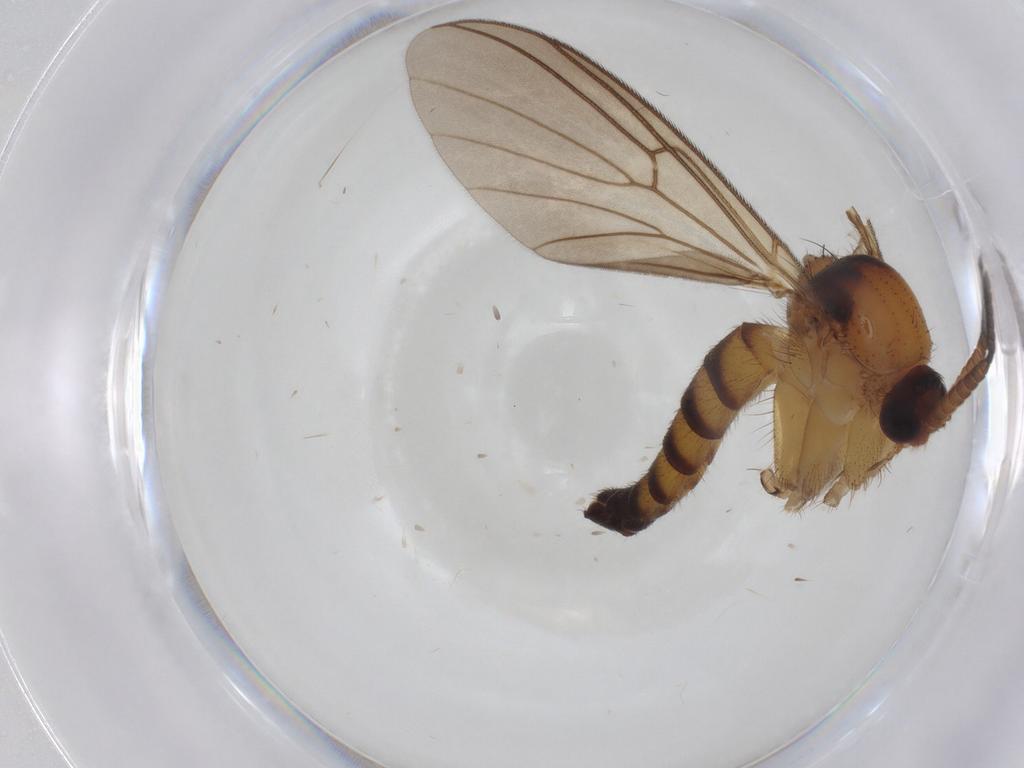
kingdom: Animalia
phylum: Arthropoda
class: Insecta
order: Diptera
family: Mycetophilidae
